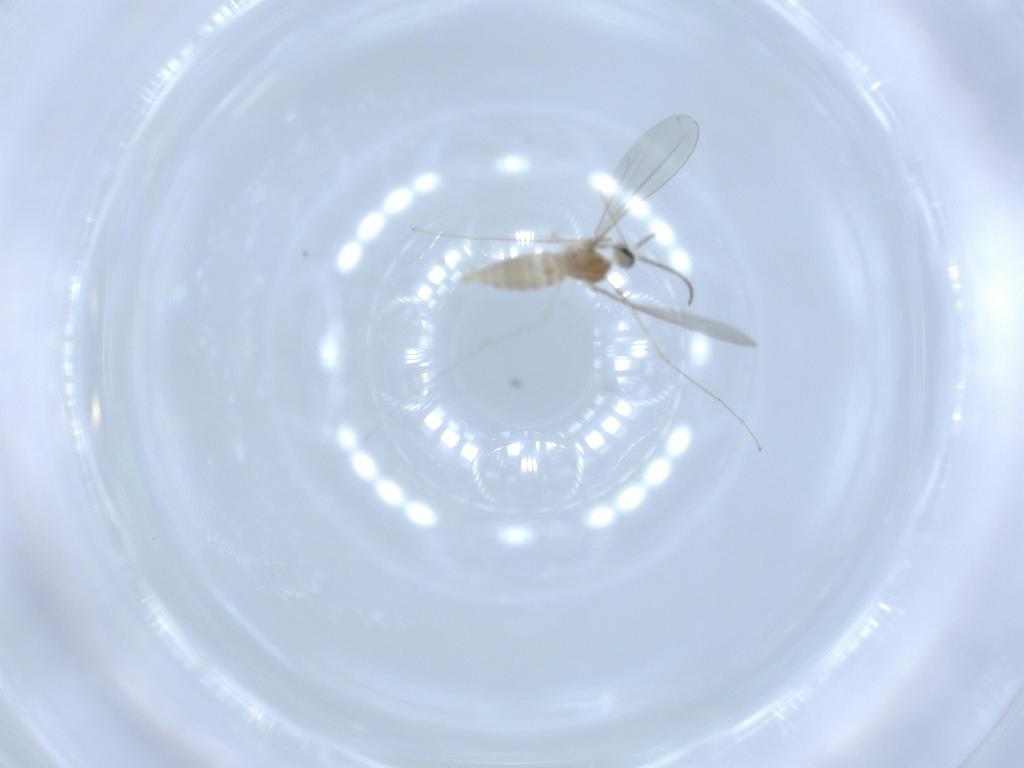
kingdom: Animalia
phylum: Arthropoda
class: Insecta
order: Diptera
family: Cecidomyiidae
